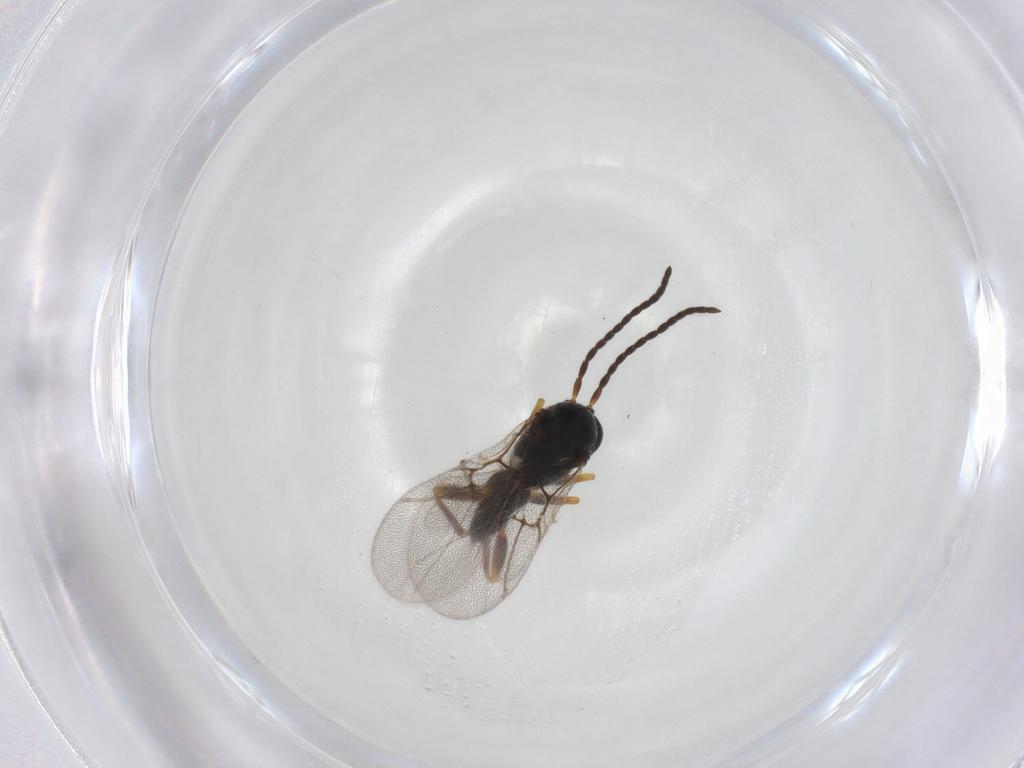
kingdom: Animalia
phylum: Arthropoda
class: Insecta
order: Hymenoptera
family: Cynipidae
